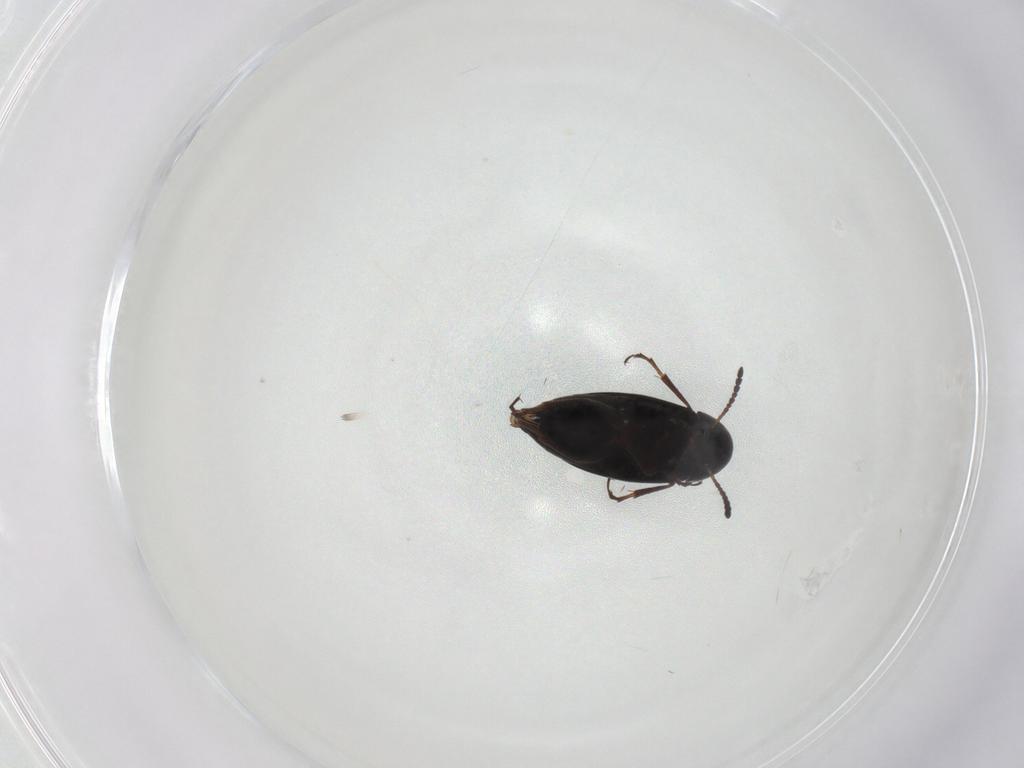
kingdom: Animalia
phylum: Arthropoda
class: Insecta
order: Coleoptera
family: Scraptiidae
